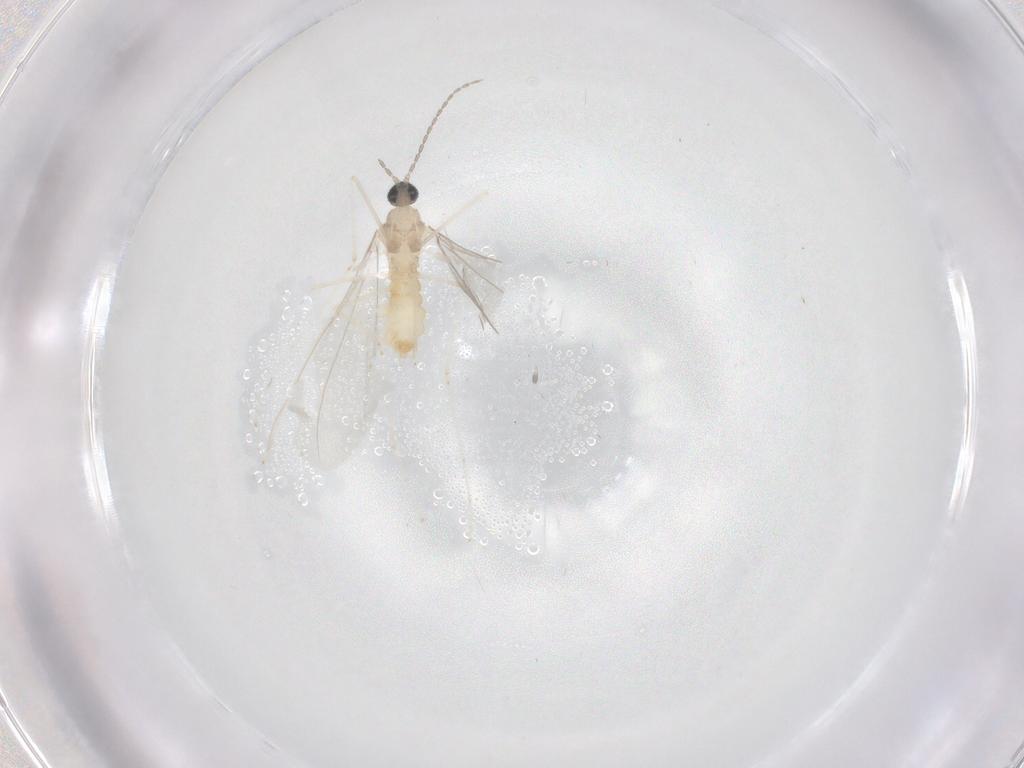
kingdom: Animalia
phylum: Arthropoda
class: Insecta
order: Diptera
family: Cecidomyiidae
